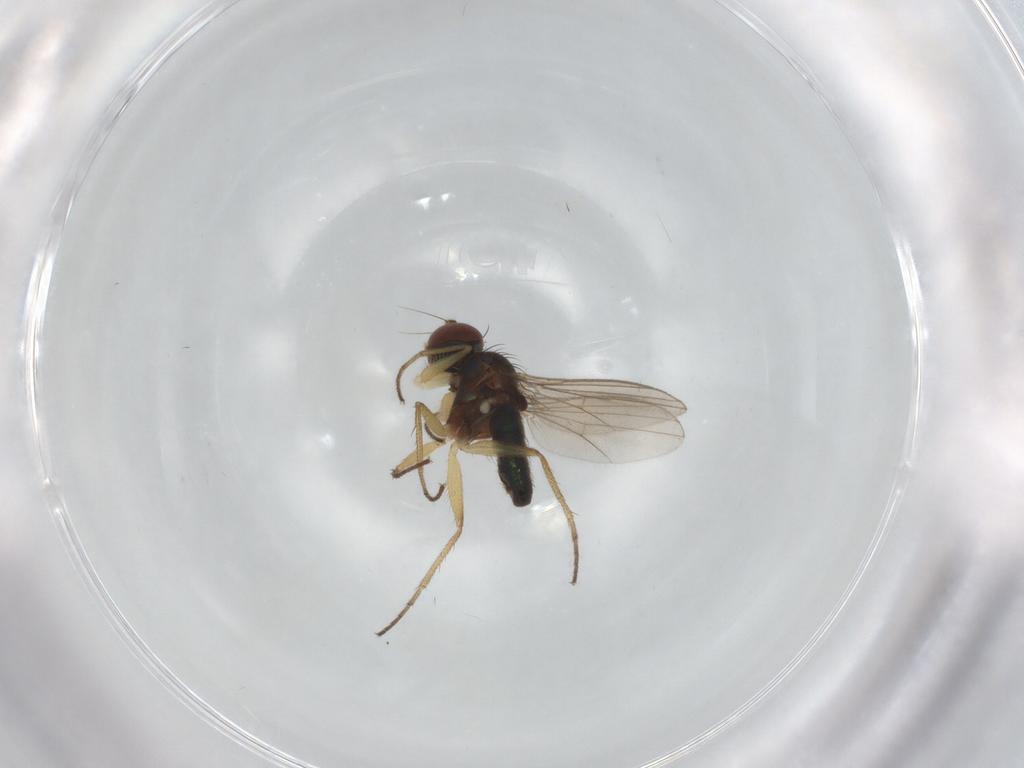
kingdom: Animalia
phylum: Arthropoda
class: Insecta
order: Diptera
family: Dolichopodidae
